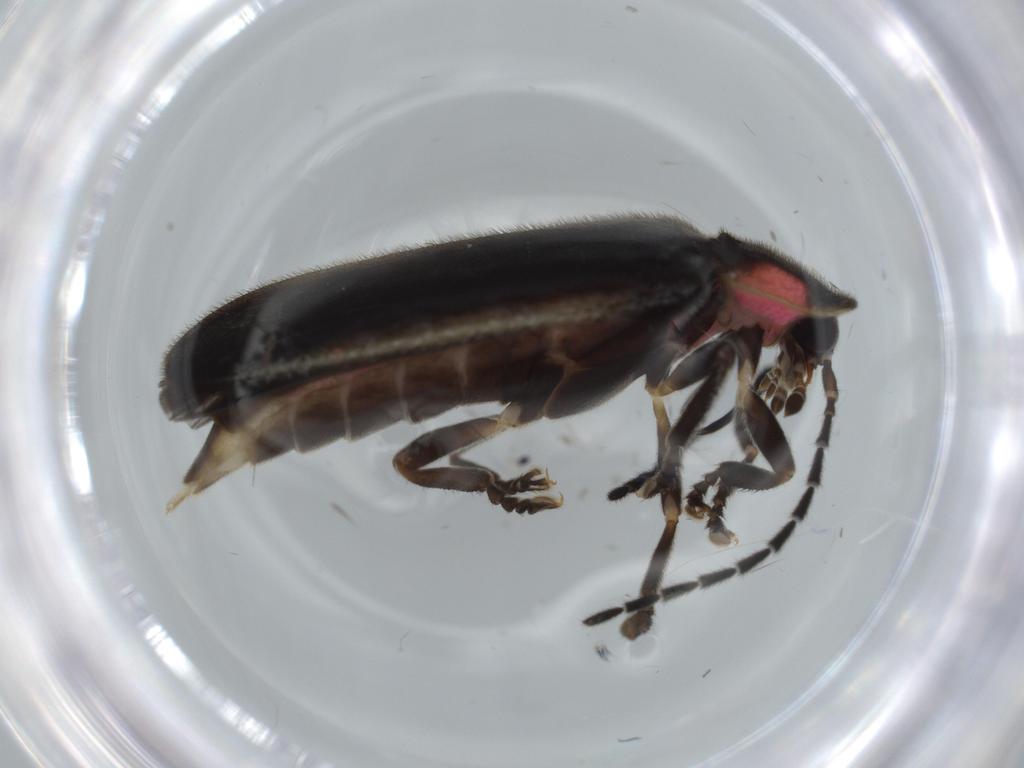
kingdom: Animalia
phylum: Arthropoda
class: Insecta
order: Coleoptera
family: Lampyridae
